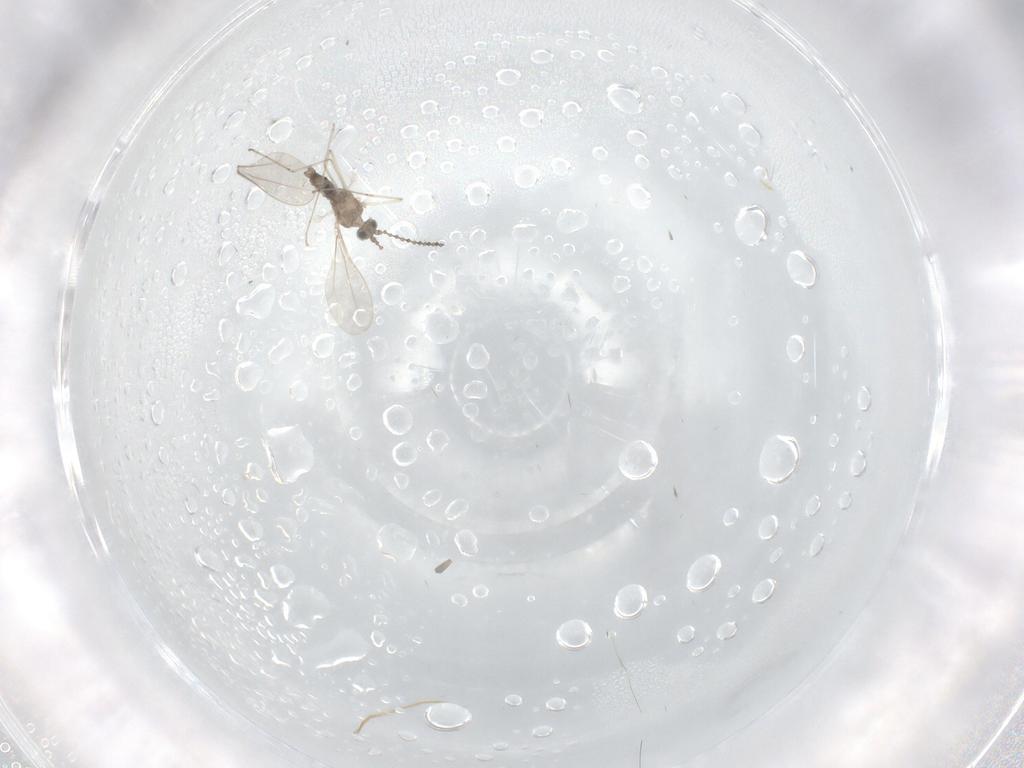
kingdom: Animalia
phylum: Arthropoda
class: Insecta
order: Diptera
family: Cecidomyiidae
